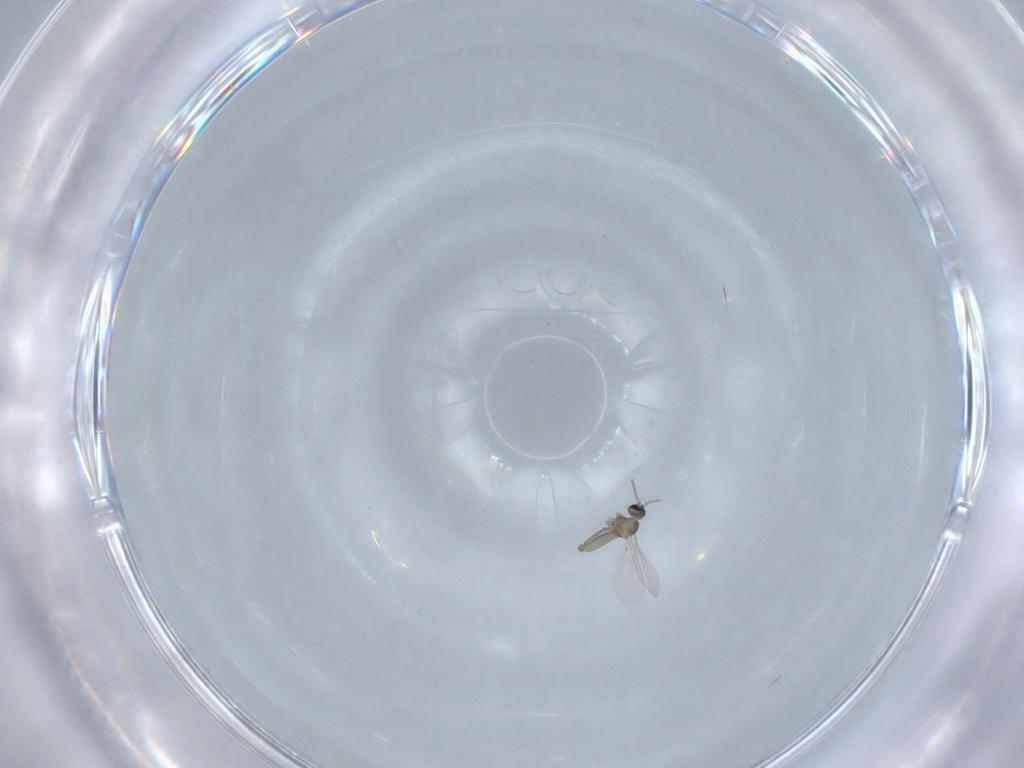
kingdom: Animalia
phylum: Arthropoda
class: Insecta
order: Diptera
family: Cecidomyiidae
